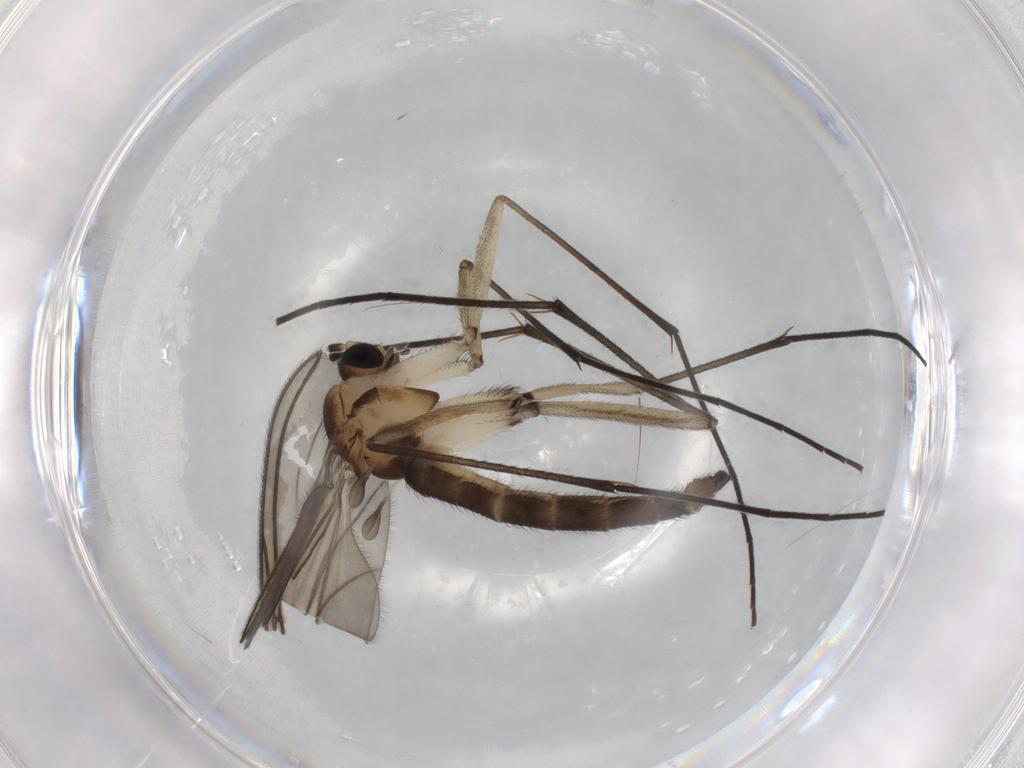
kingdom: Animalia
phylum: Arthropoda
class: Insecta
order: Diptera
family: Sciaridae
